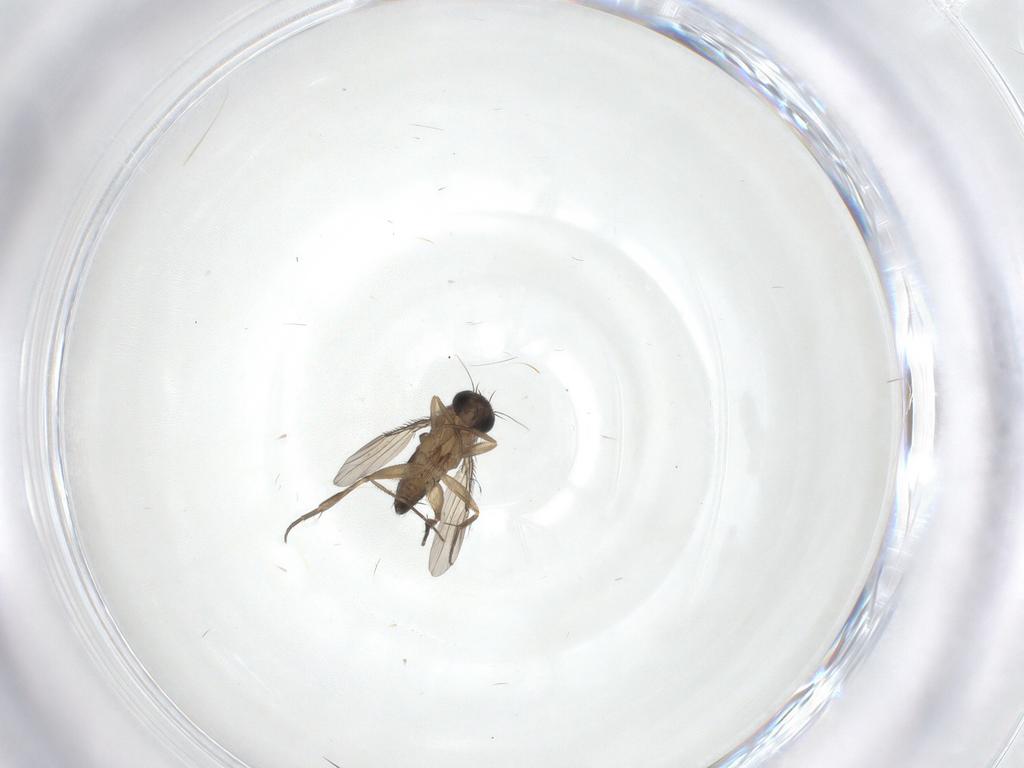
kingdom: Animalia
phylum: Arthropoda
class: Insecta
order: Diptera
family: Phoridae
